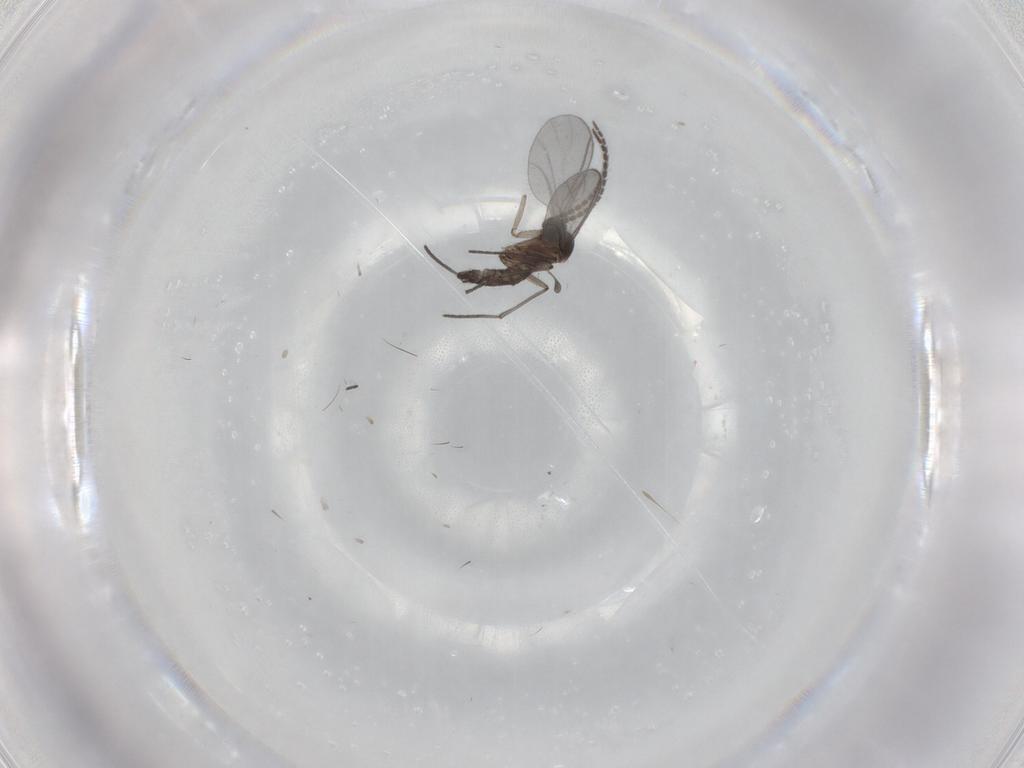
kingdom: Animalia
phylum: Arthropoda
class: Insecta
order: Diptera
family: Sciaridae
